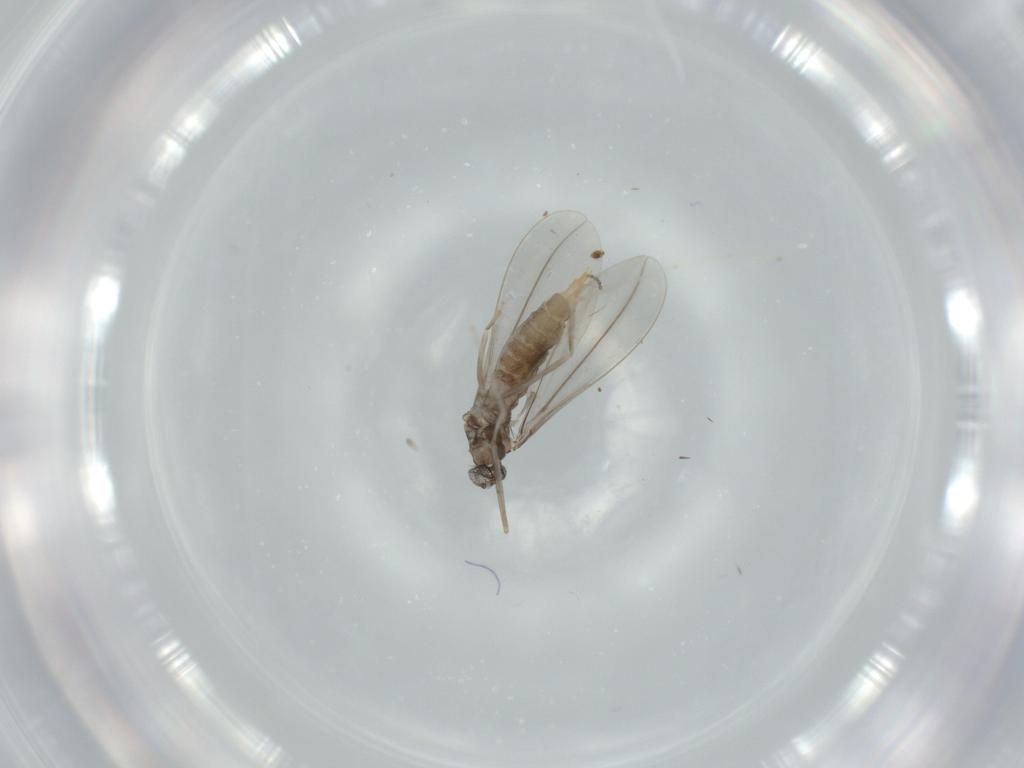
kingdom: Animalia
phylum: Arthropoda
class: Insecta
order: Diptera
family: Cecidomyiidae
